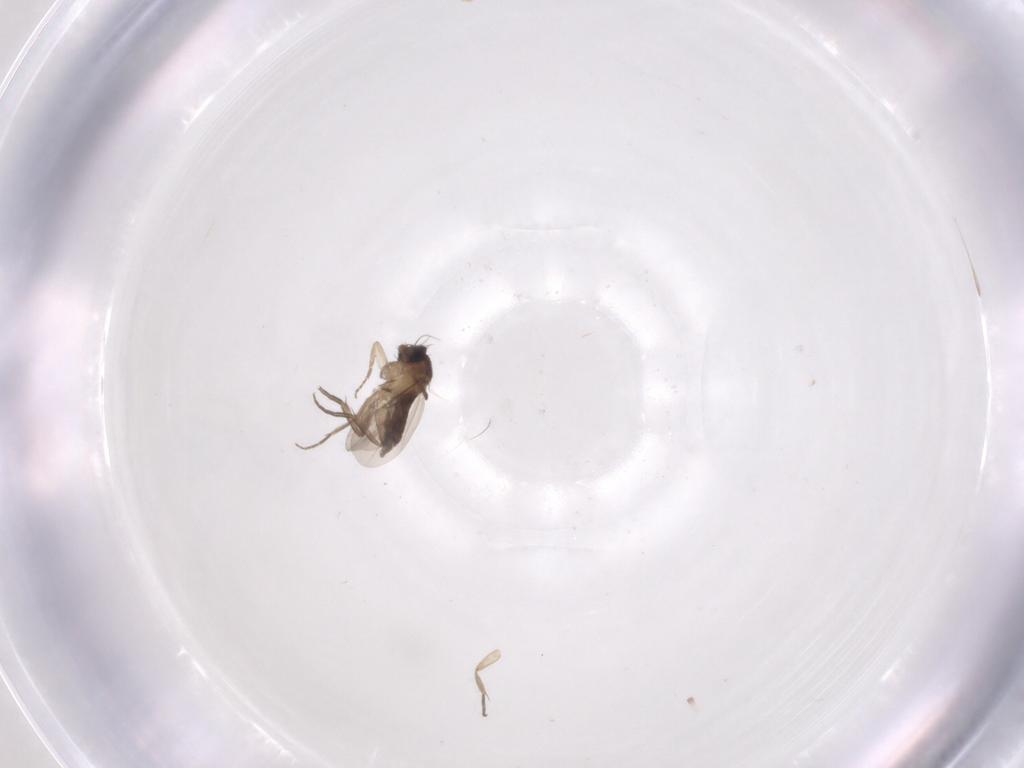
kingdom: Animalia
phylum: Arthropoda
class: Insecta
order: Diptera
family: Phoridae
